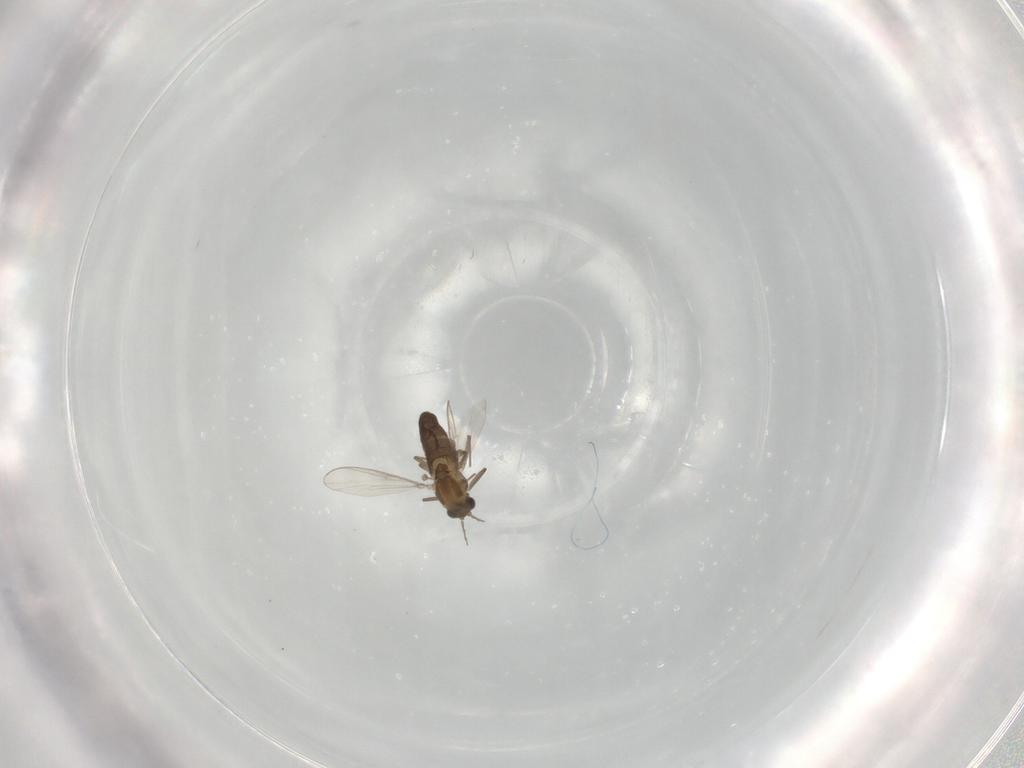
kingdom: Animalia
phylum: Arthropoda
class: Insecta
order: Diptera
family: Chironomidae
